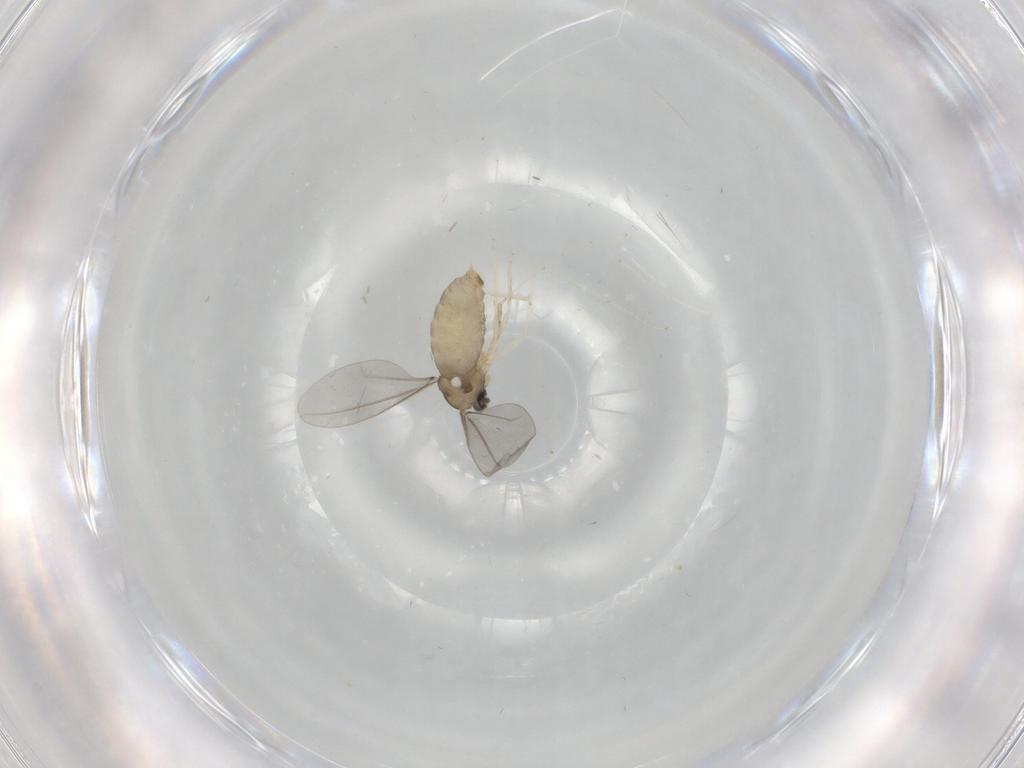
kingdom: Animalia
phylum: Arthropoda
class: Insecta
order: Diptera
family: Cecidomyiidae
